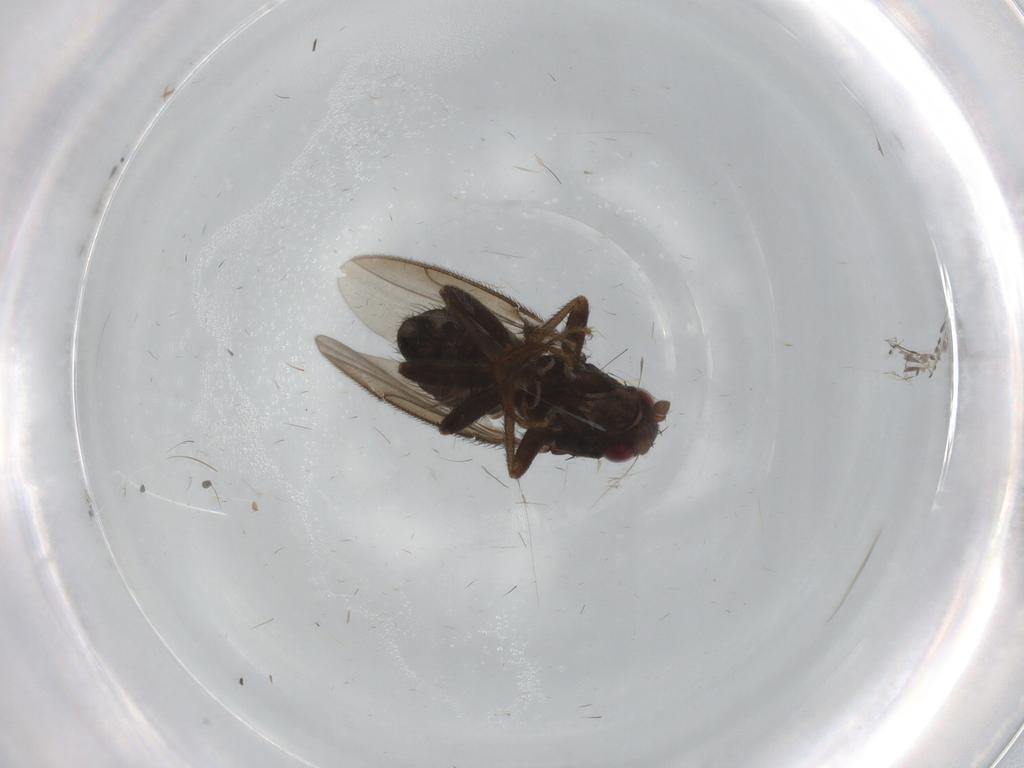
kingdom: Animalia
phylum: Arthropoda
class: Insecta
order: Diptera
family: Sphaeroceridae
